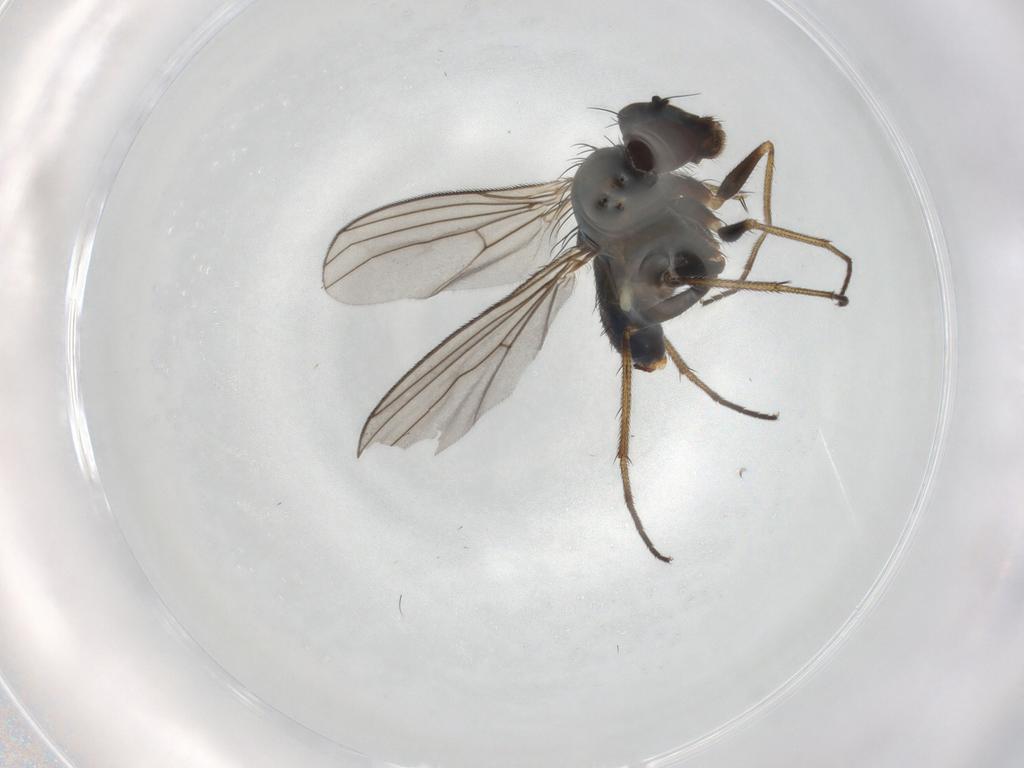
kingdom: Animalia
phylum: Arthropoda
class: Insecta
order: Diptera
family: Dolichopodidae
